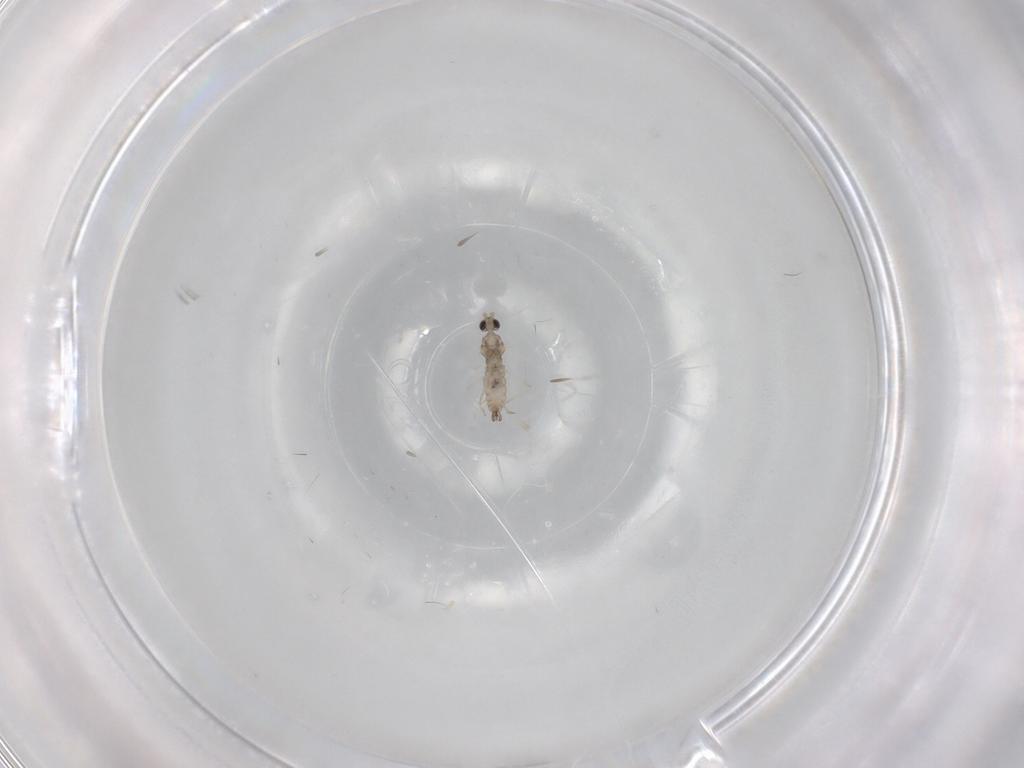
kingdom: Animalia
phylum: Arthropoda
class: Insecta
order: Diptera
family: Cecidomyiidae
